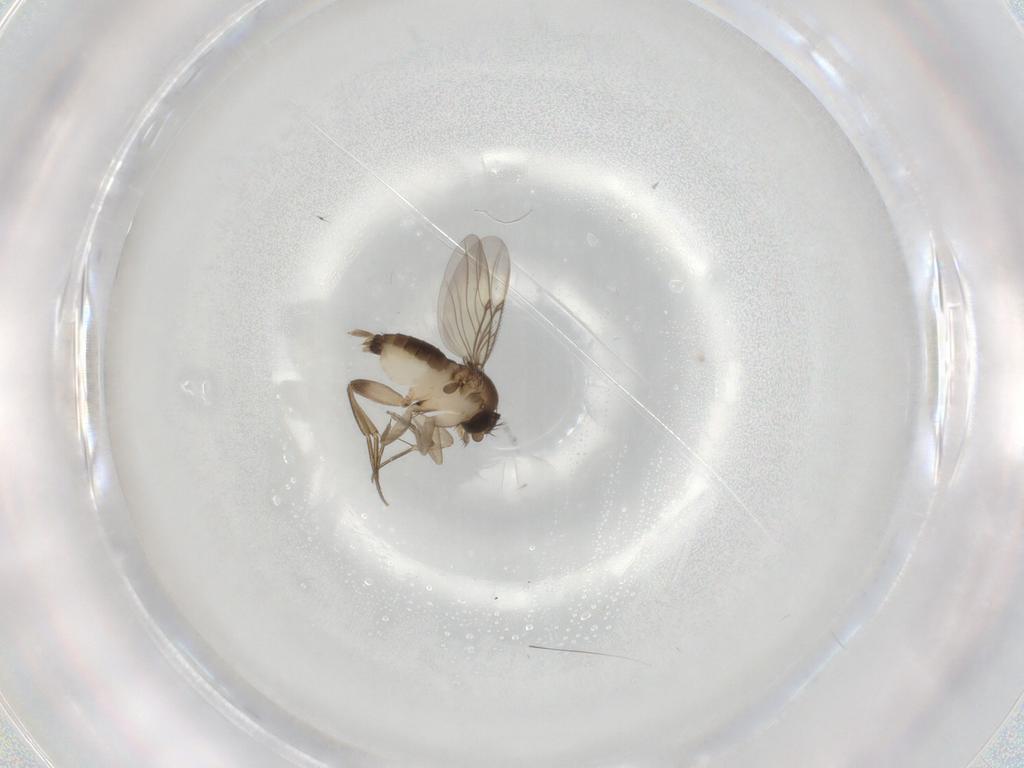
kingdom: Animalia
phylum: Arthropoda
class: Insecta
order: Diptera
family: Phoridae
